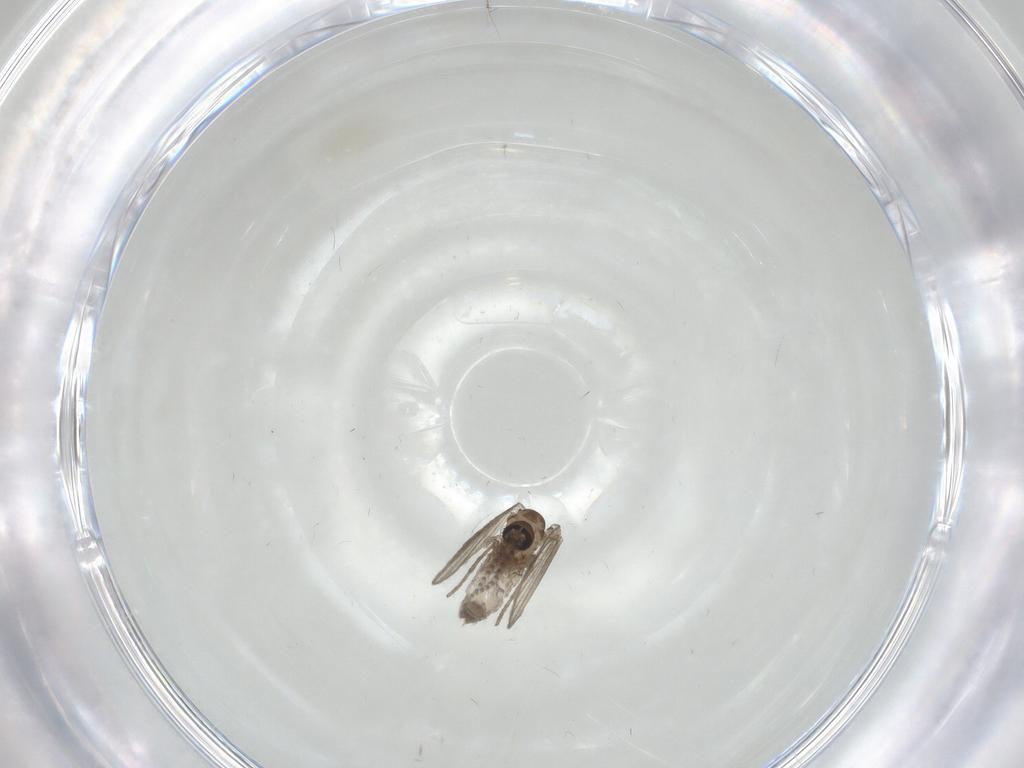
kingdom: Animalia
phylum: Arthropoda
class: Insecta
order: Diptera
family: Psychodidae
